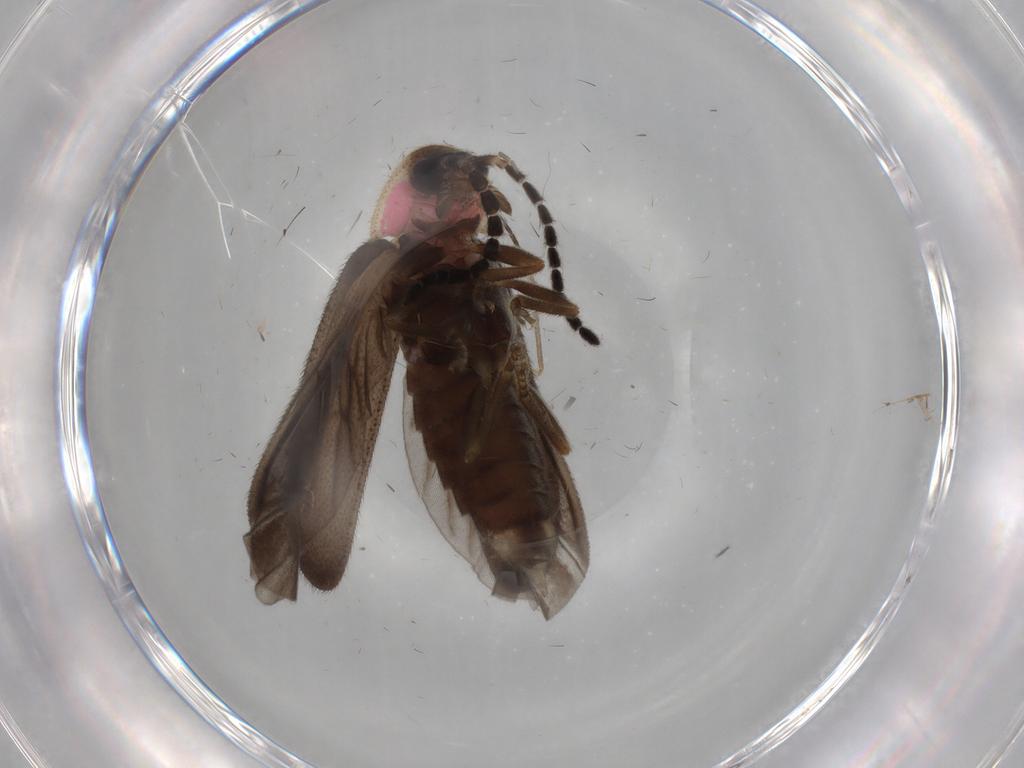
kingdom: Animalia
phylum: Arthropoda
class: Insecta
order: Coleoptera
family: Lampyridae
